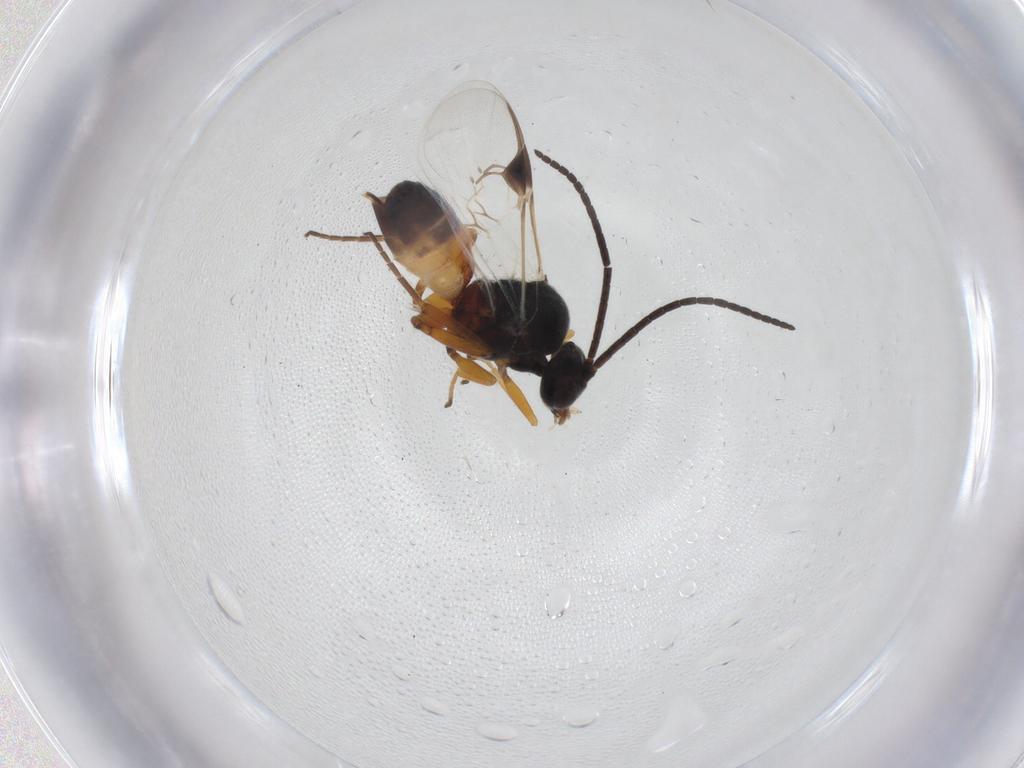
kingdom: Animalia
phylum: Arthropoda
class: Insecta
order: Hymenoptera
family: Braconidae
